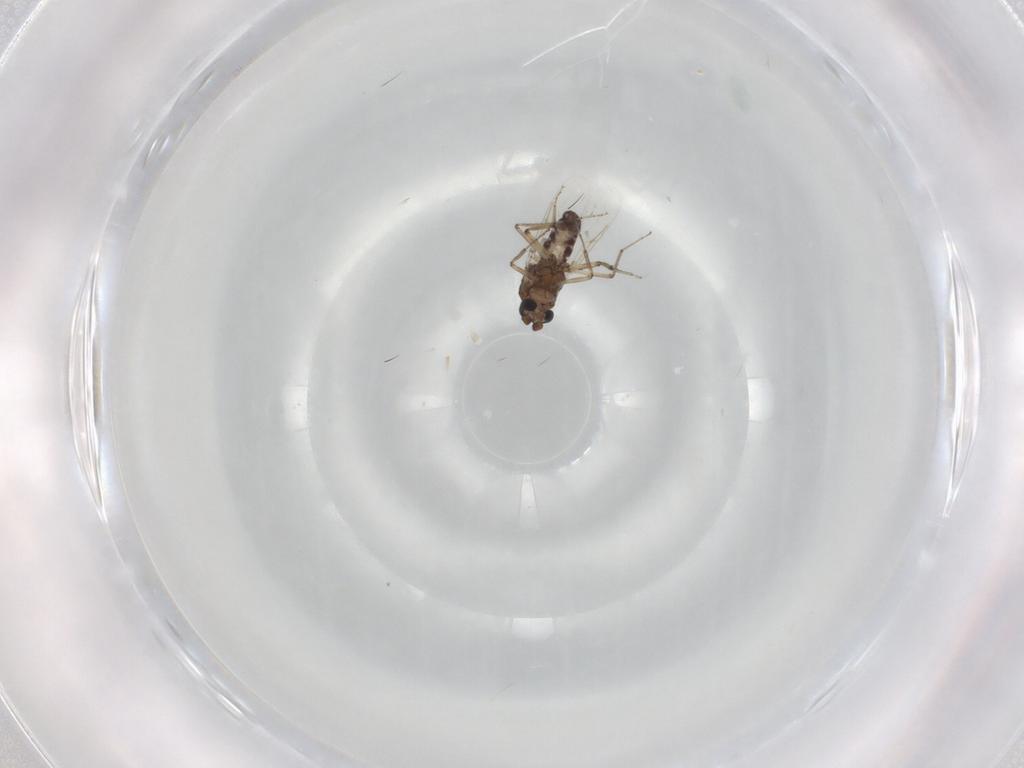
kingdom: Animalia
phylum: Arthropoda
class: Insecta
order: Diptera
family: Ceratopogonidae
